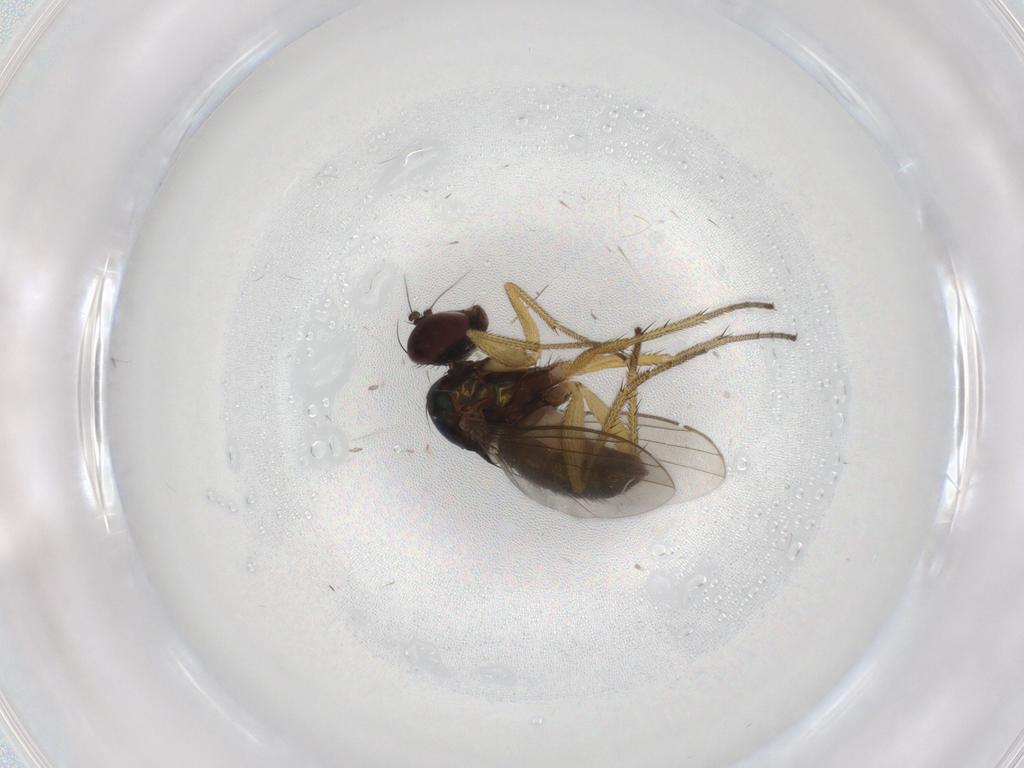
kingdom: Animalia
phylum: Arthropoda
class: Insecta
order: Diptera
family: Dolichopodidae
